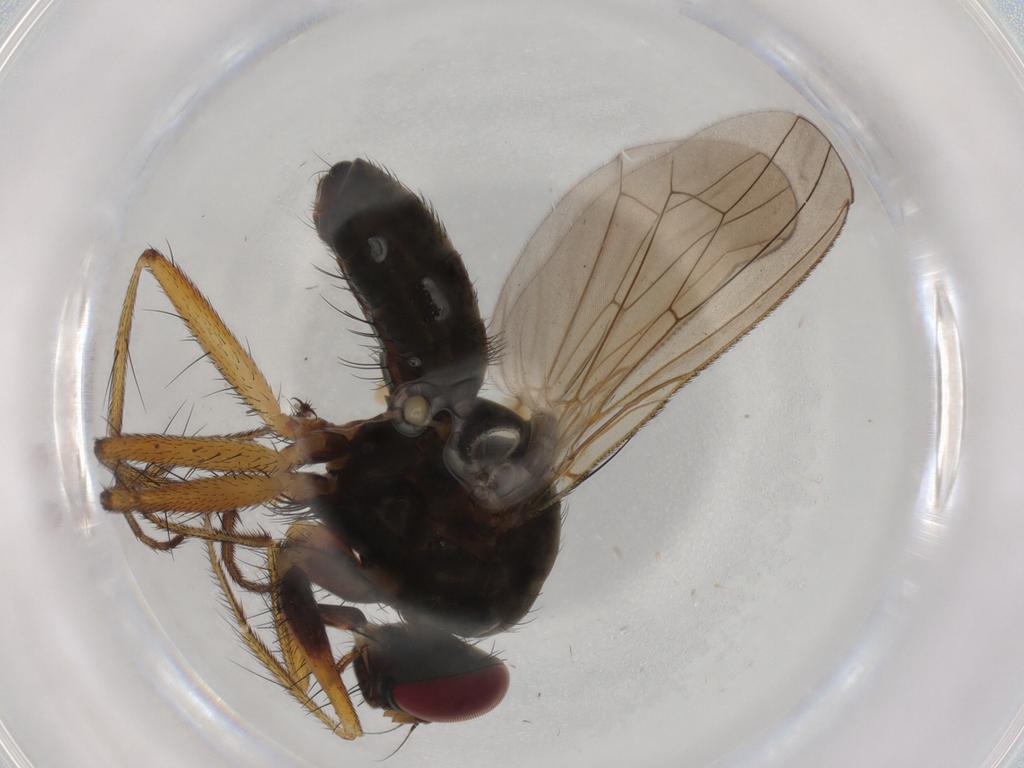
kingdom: Animalia
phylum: Arthropoda
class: Insecta
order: Diptera
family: Muscidae
